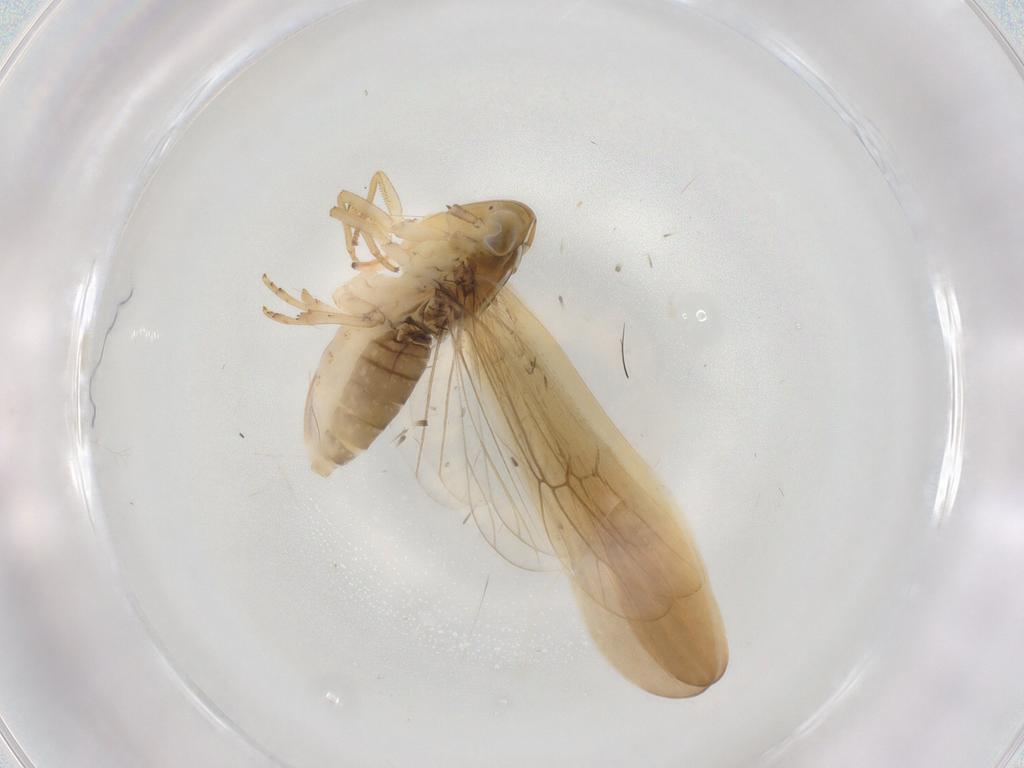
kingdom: Animalia
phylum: Arthropoda
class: Insecta
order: Hemiptera
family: Delphacidae
